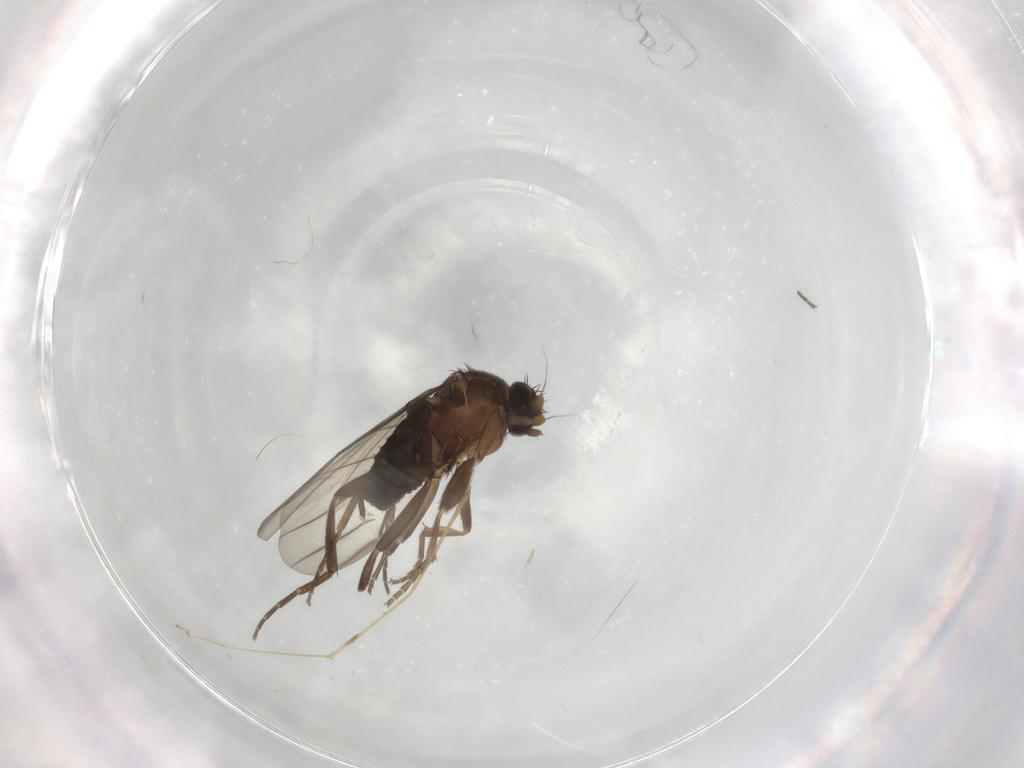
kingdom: Animalia
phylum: Arthropoda
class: Insecta
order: Diptera
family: Limoniidae
